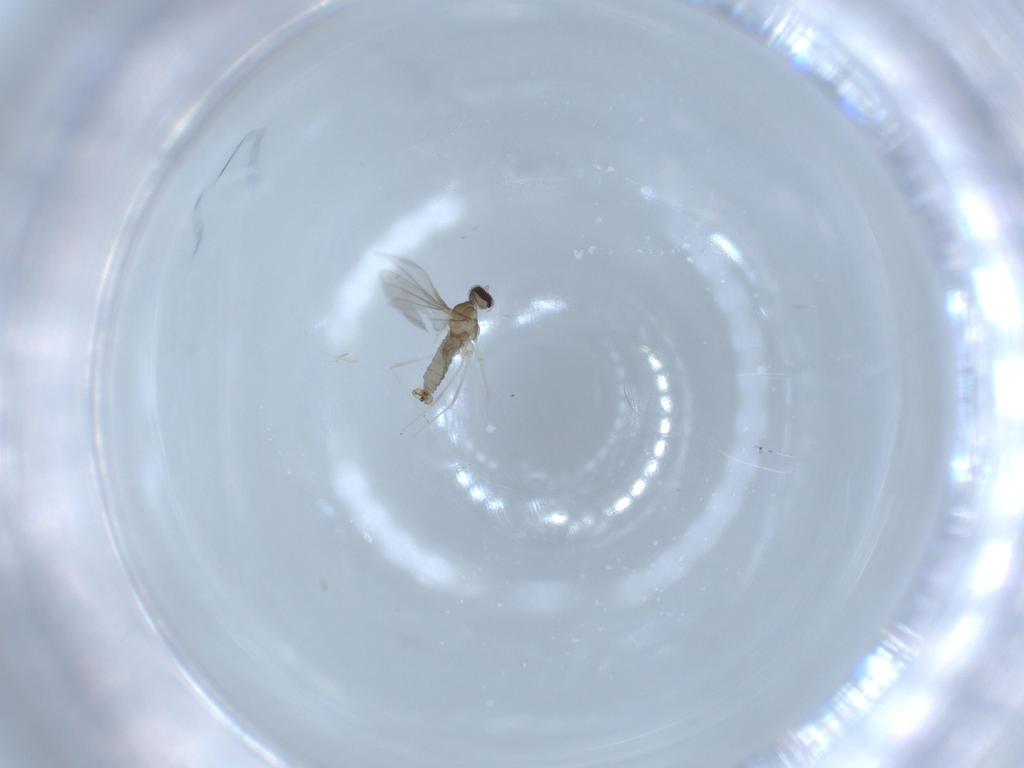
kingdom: Animalia
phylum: Arthropoda
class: Insecta
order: Diptera
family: Cecidomyiidae
